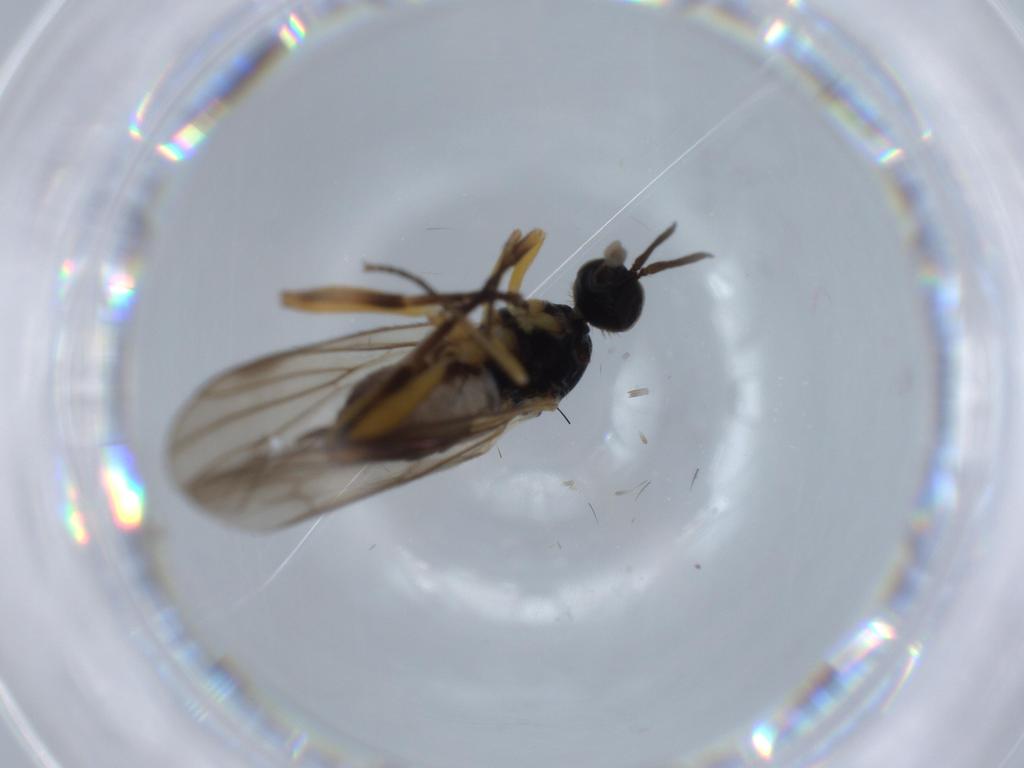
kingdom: Animalia
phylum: Arthropoda
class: Insecta
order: Diptera
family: Hybotidae
